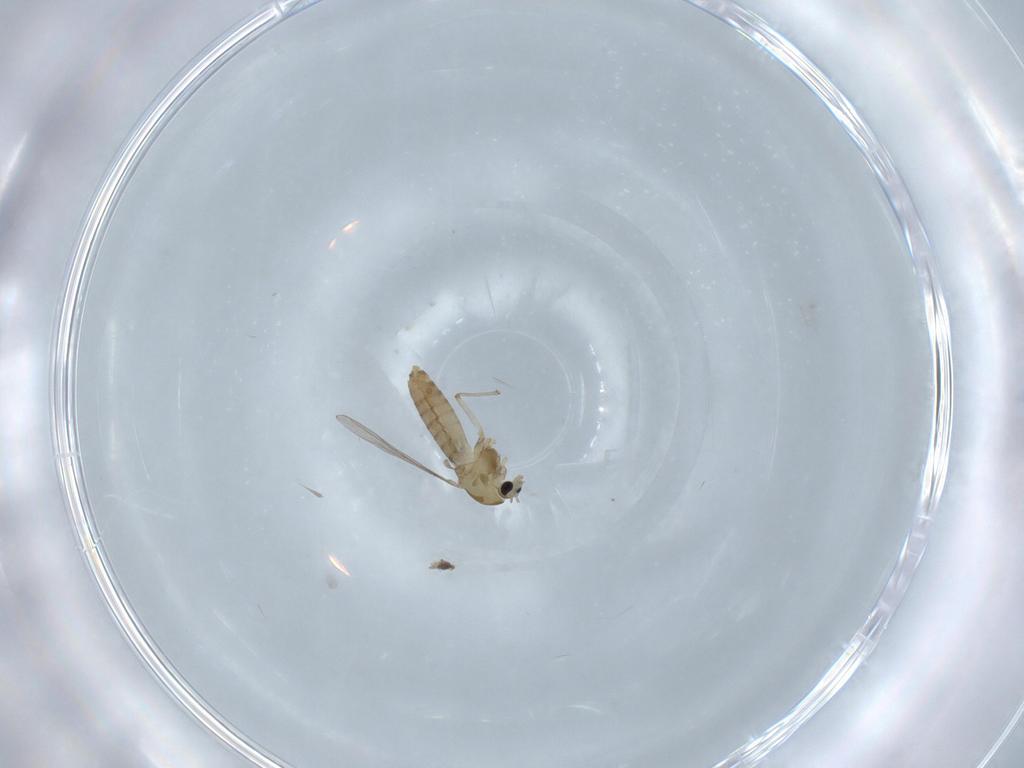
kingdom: Animalia
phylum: Arthropoda
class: Insecta
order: Diptera
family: Chironomidae
